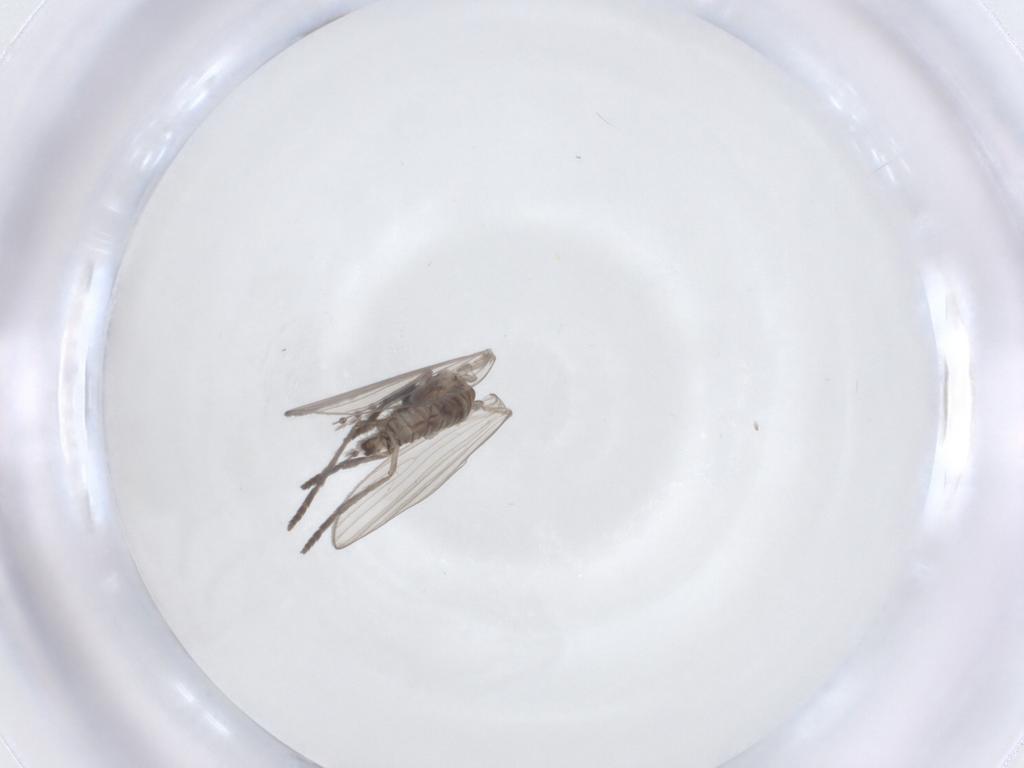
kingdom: Animalia
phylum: Arthropoda
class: Insecta
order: Diptera
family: Psychodidae
